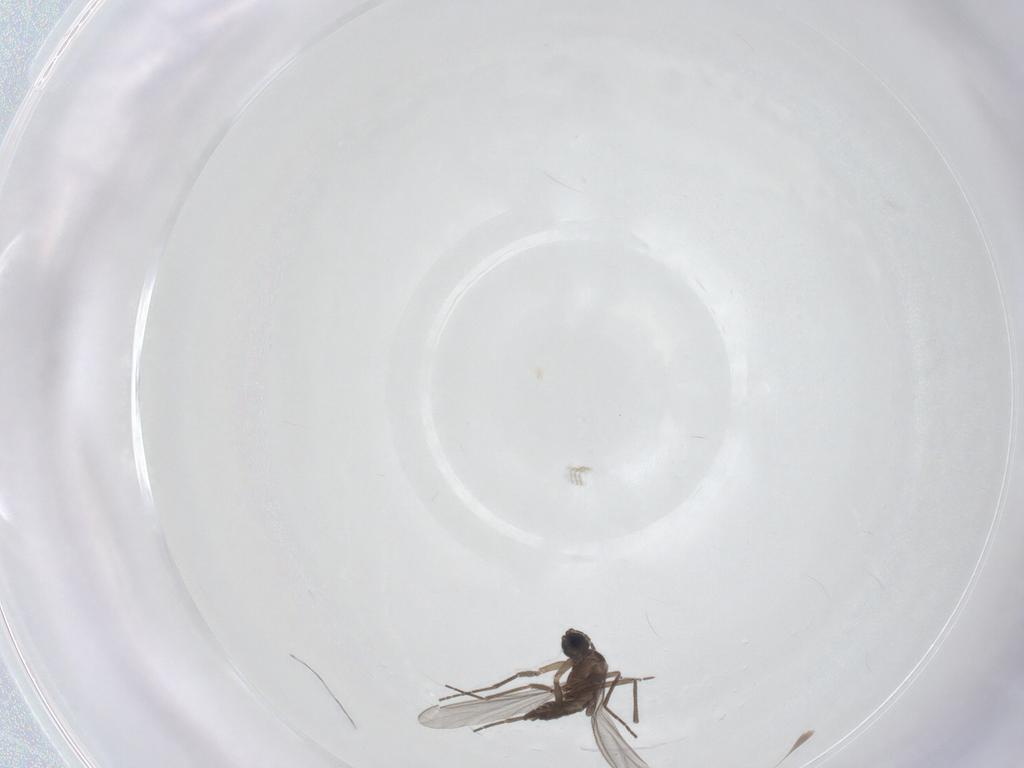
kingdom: Animalia
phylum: Arthropoda
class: Insecta
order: Diptera
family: Sciaridae
